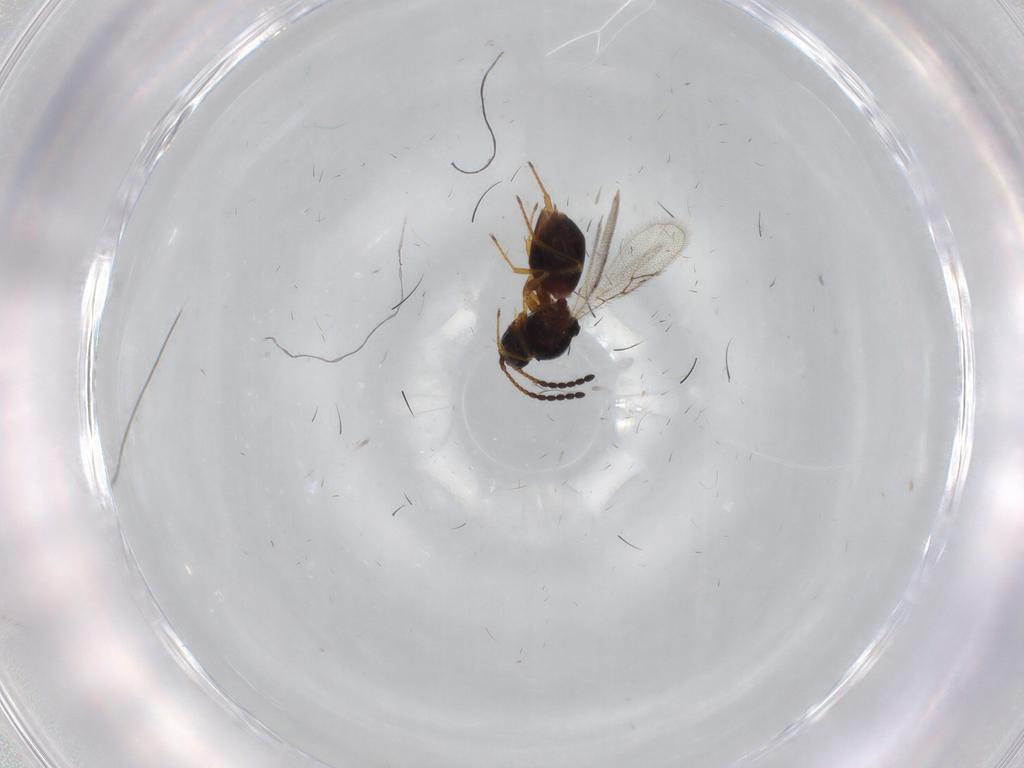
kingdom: Animalia
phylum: Arthropoda
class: Insecta
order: Hymenoptera
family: Figitidae
